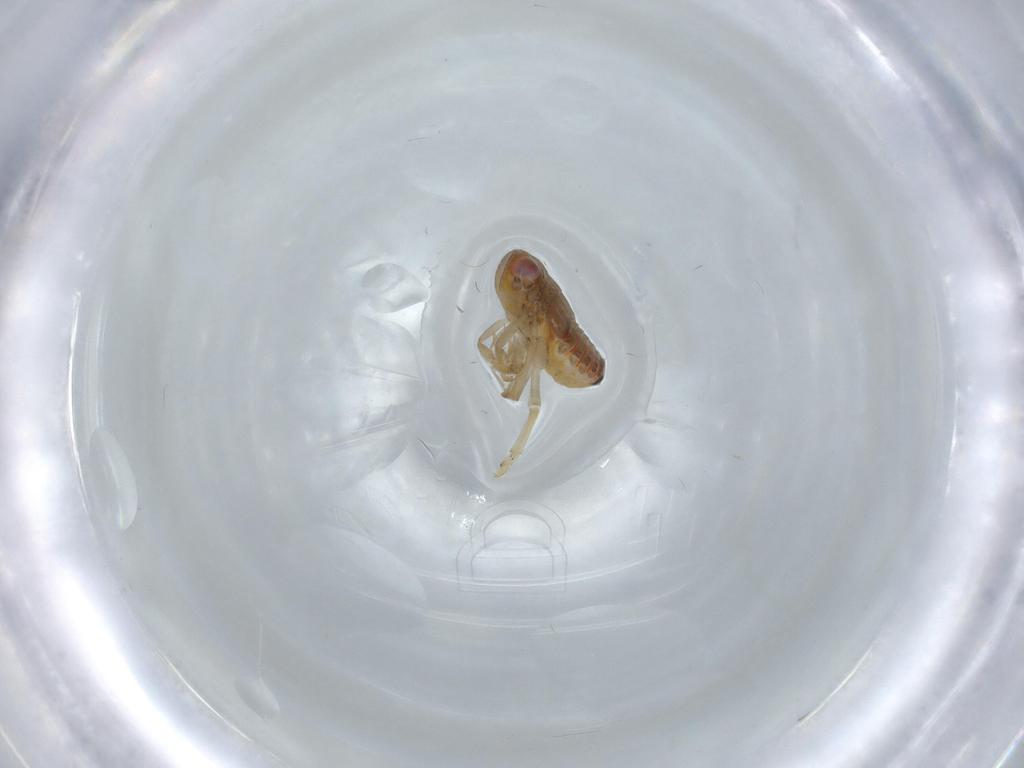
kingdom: Animalia
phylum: Arthropoda
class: Insecta
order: Hemiptera
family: Issidae
